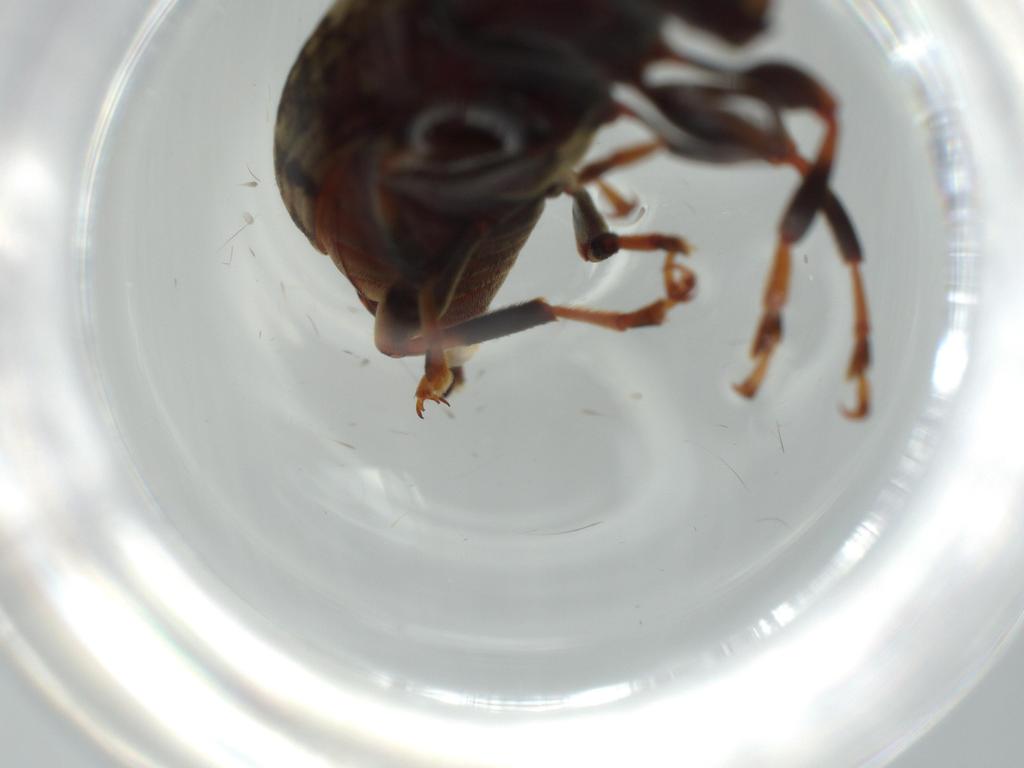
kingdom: Animalia
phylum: Arthropoda
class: Insecta
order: Coleoptera
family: Anthribidae
